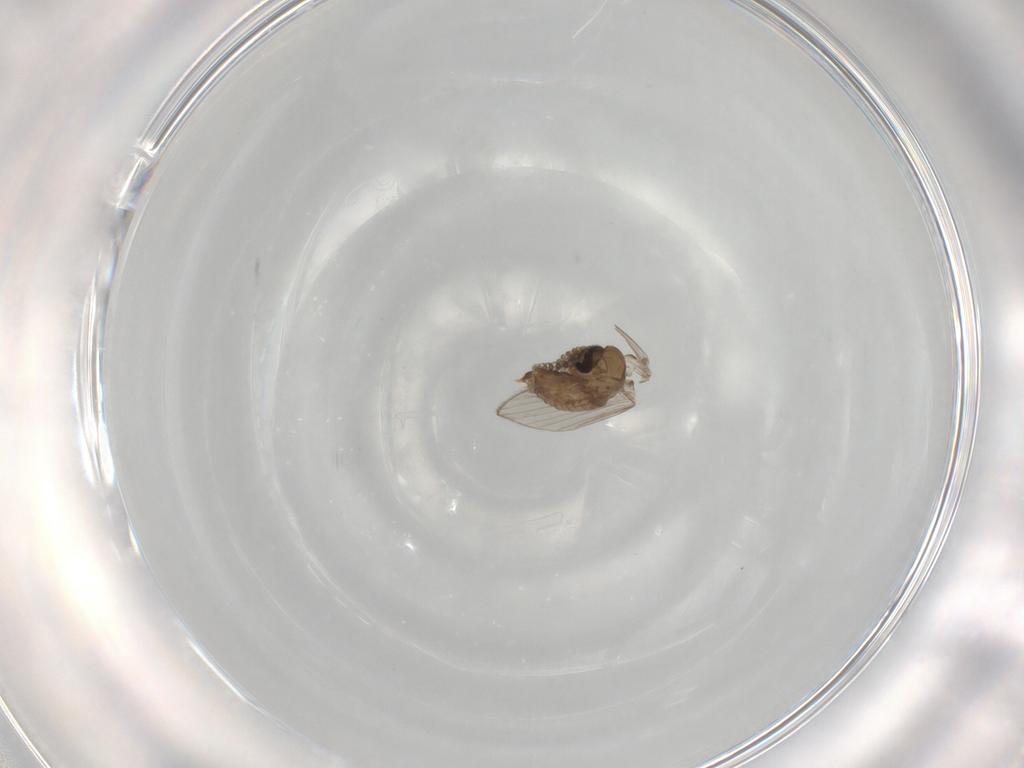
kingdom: Animalia
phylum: Arthropoda
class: Insecta
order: Diptera
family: Psychodidae
